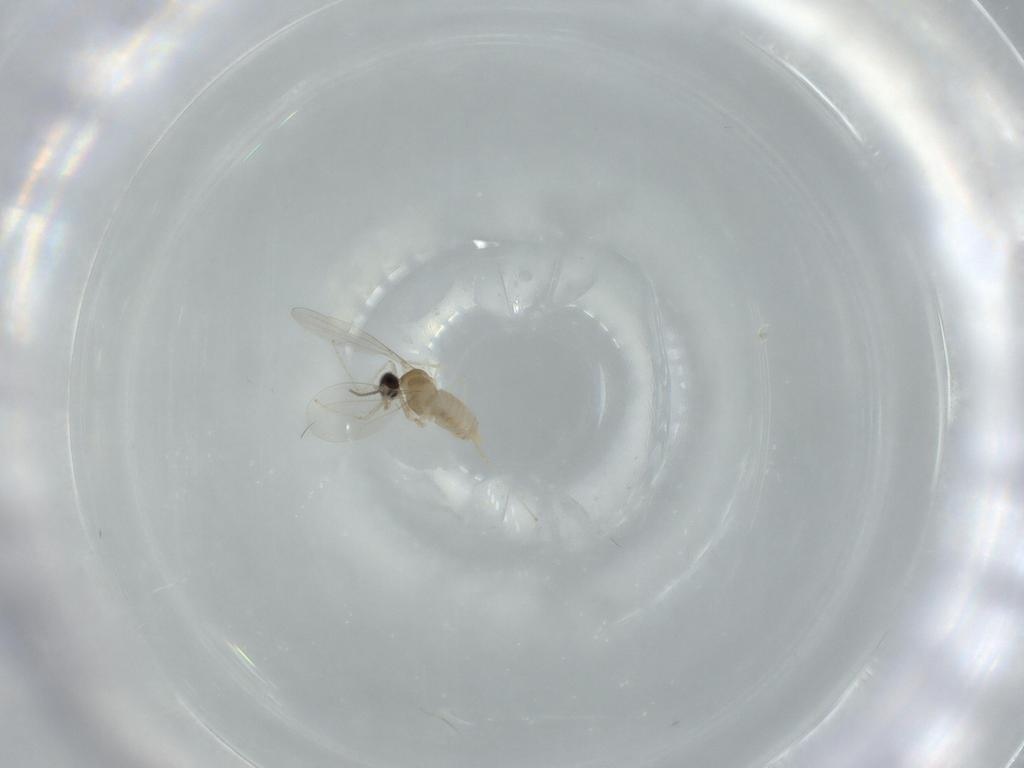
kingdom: Animalia
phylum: Arthropoda
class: Insecta
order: Diptera
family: Cecidomyiidae
